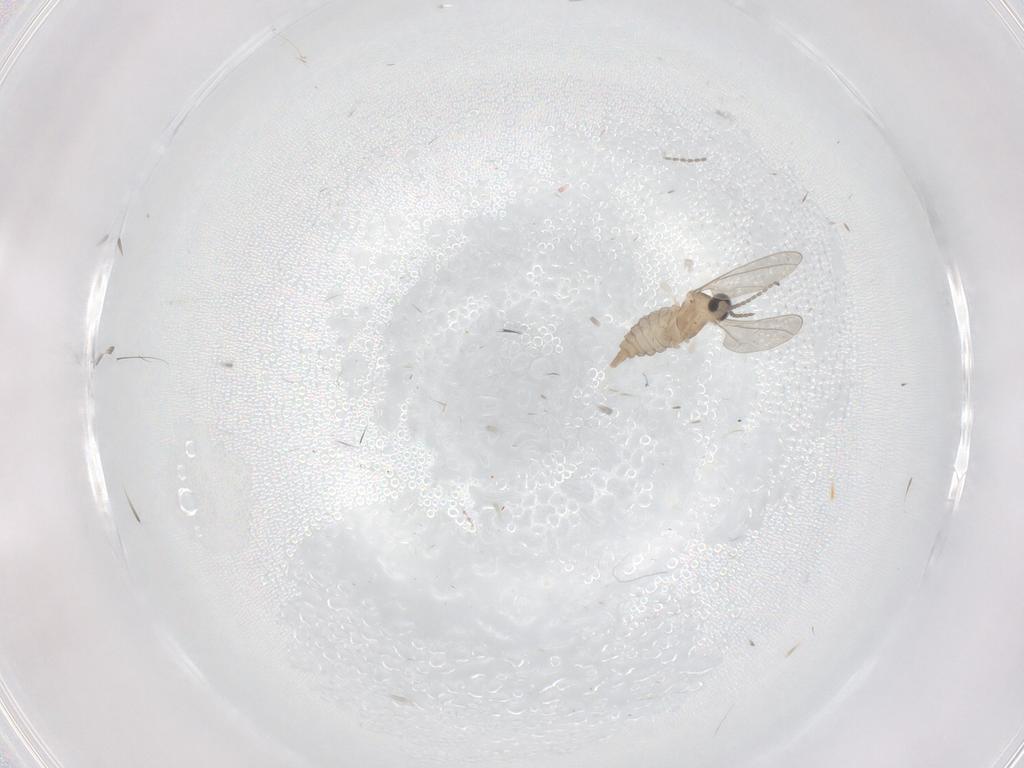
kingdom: Animalia
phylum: Arthropoda
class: Insecta
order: Diptera
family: Cecidomyiidae
